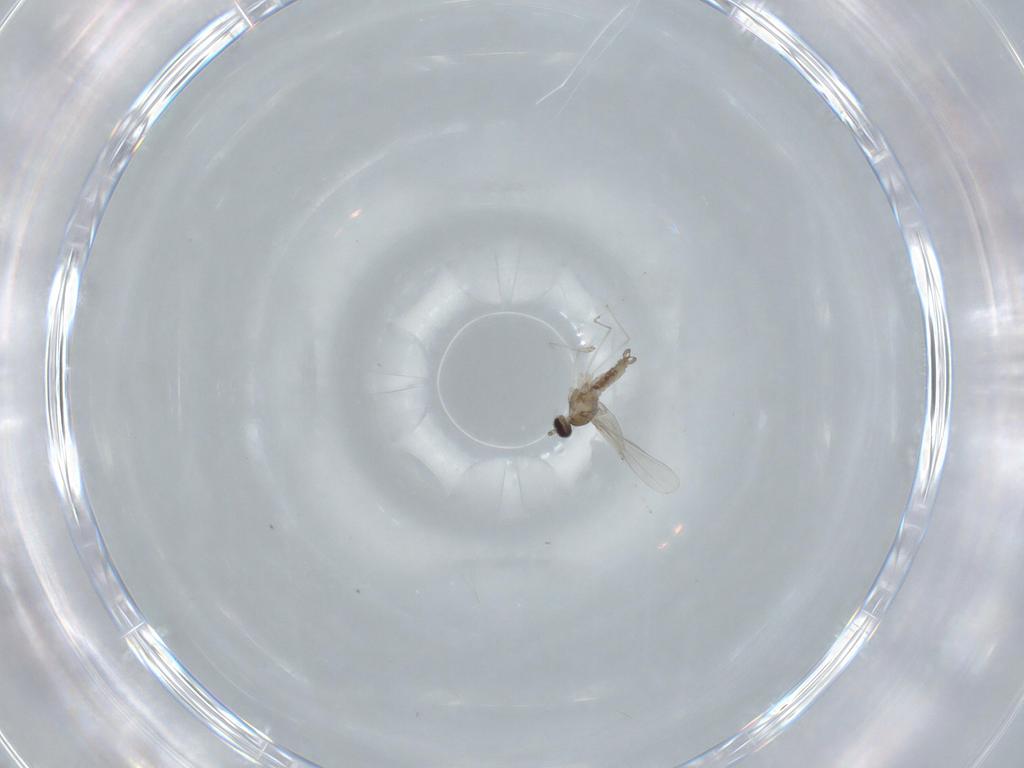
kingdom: Animalia
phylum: Arthropoda
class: Insecta
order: Diptera
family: Cecidomyiidae
